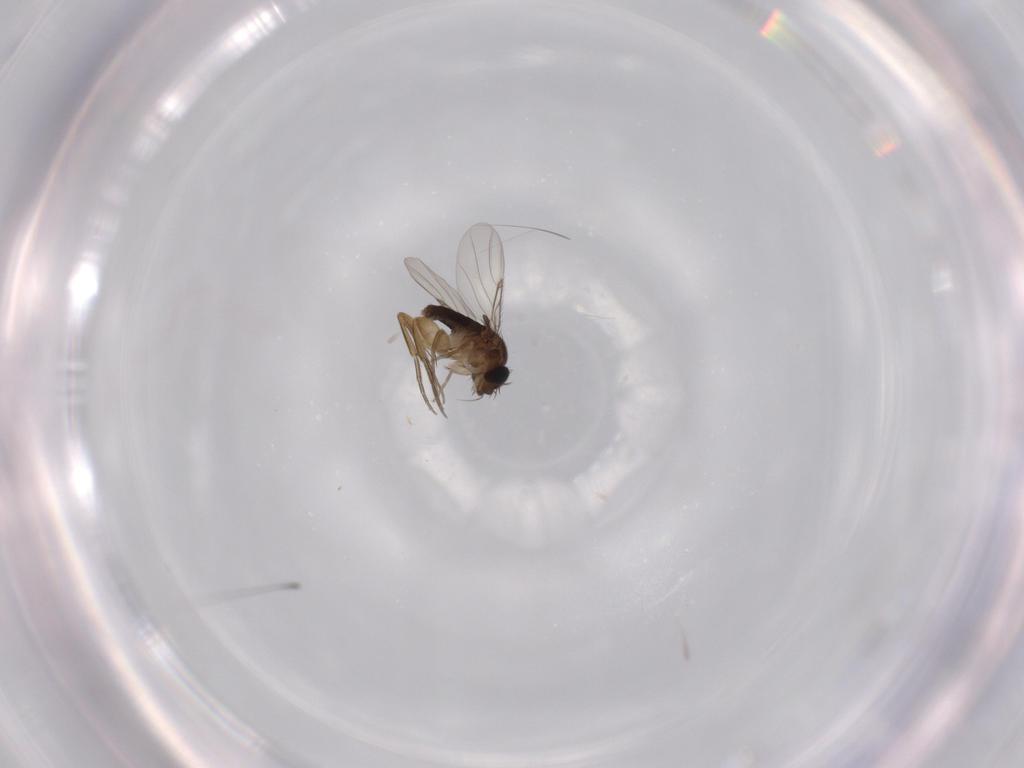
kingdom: Animalia
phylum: Arthropoda
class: Insecta
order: Diptera
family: Phoridae
